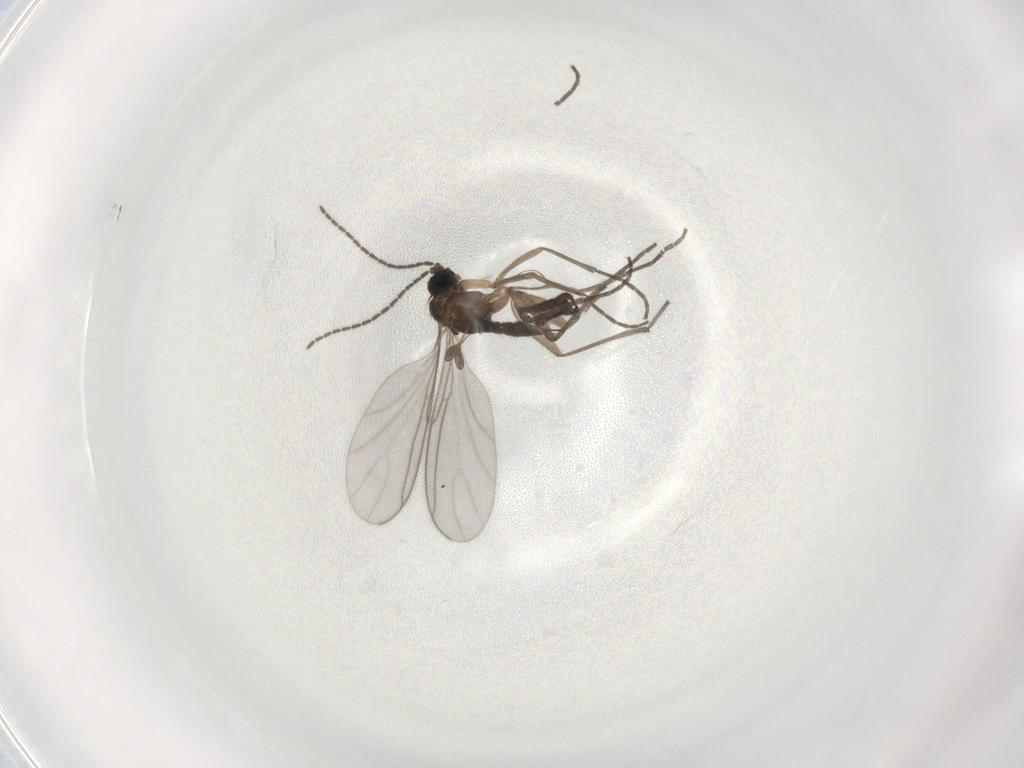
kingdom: Animalia
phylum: Arthropoda
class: Insecta
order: Diptera
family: Sciaridae
